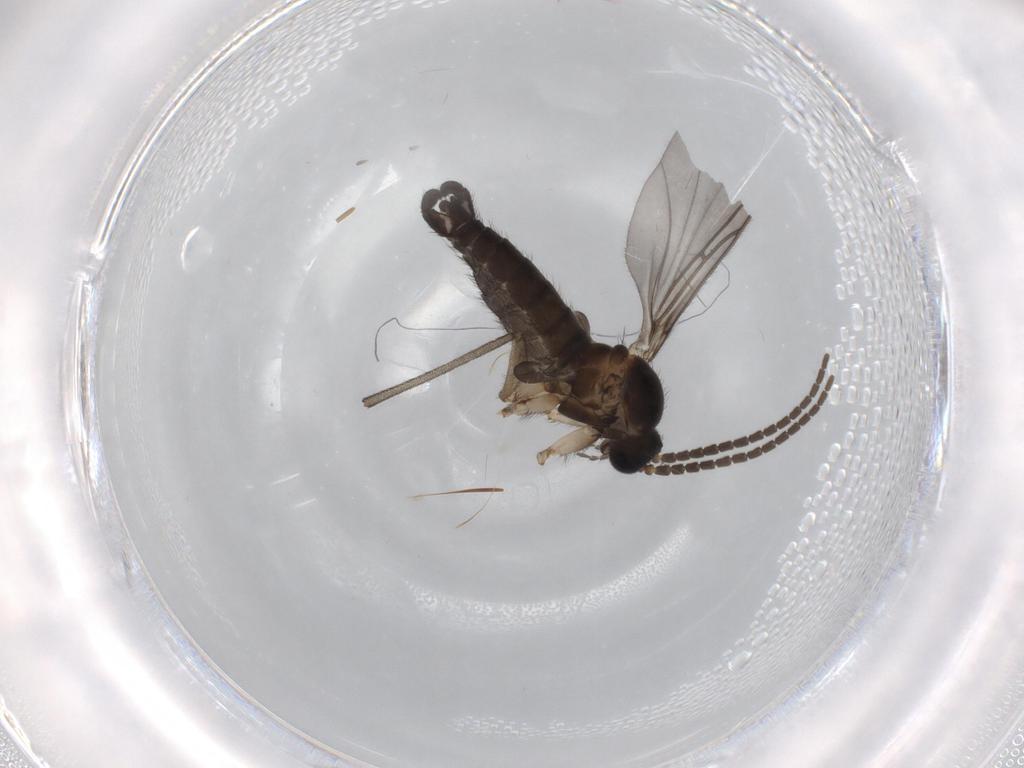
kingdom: Animalia
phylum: Arthropoda
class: Insecta
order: Diptera
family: Sciaridae
